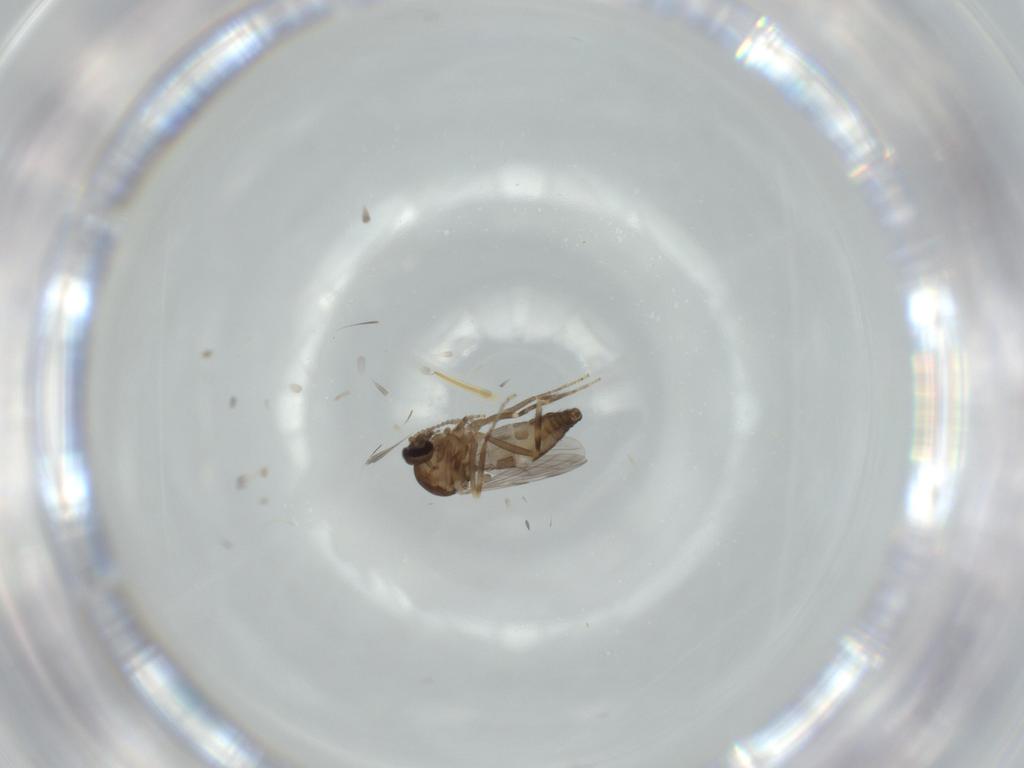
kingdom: Animalia
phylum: Arthropoda
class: Insecta
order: Diptera
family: Ceratopogonidae
